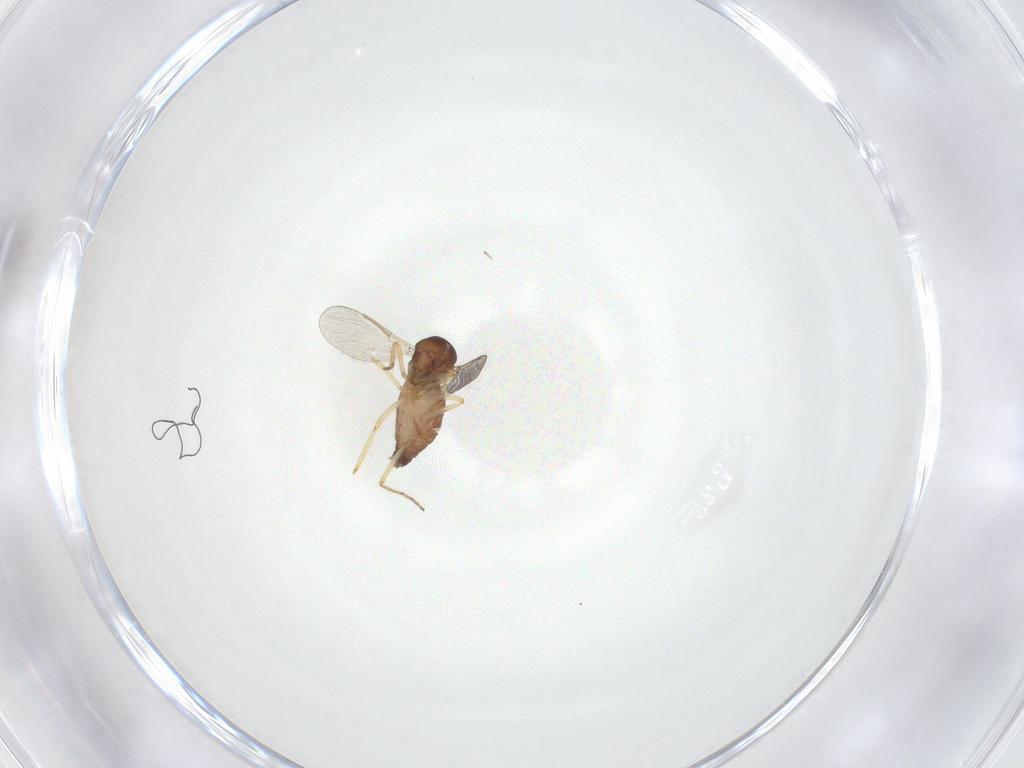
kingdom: Animalia
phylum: Arthropoda
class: Insecta
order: Diptera
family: Ceratopogonidae
